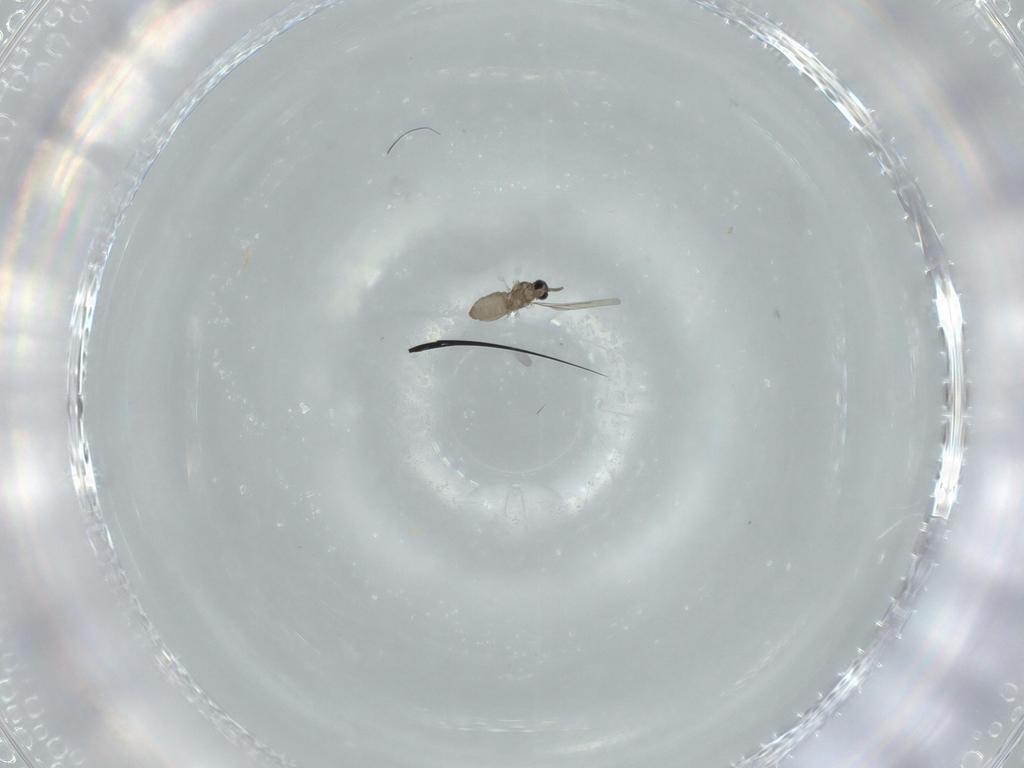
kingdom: Animalia
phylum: Arthropoda
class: Insecta
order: Diptera
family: Cecidomyiidae
